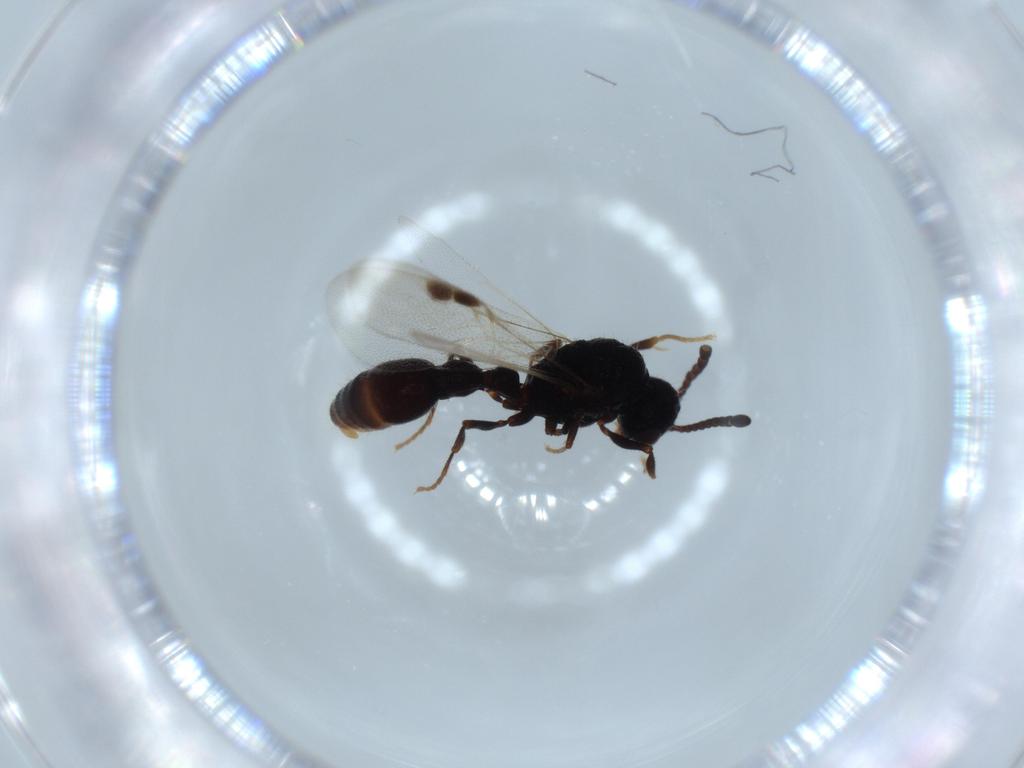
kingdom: Animalia
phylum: Arthropoda
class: Insecta
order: Hymenoptera
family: Formicidae
